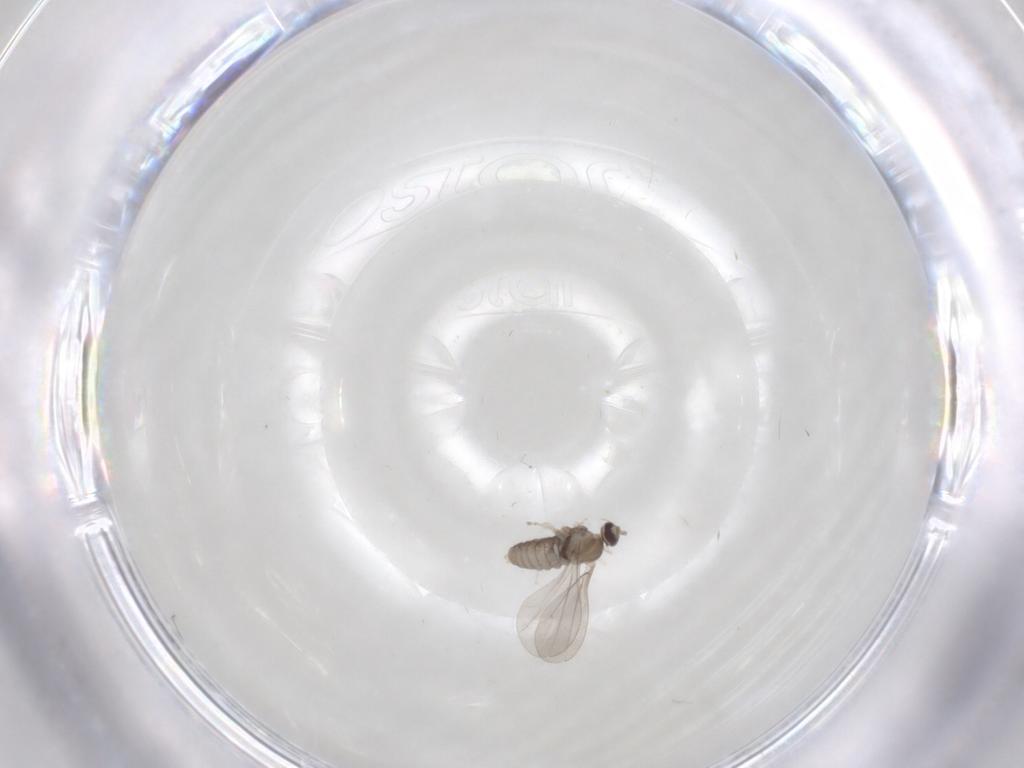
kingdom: Animalia
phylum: Arthropoda
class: Insecta
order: Diptera
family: Cecidomyiidae
